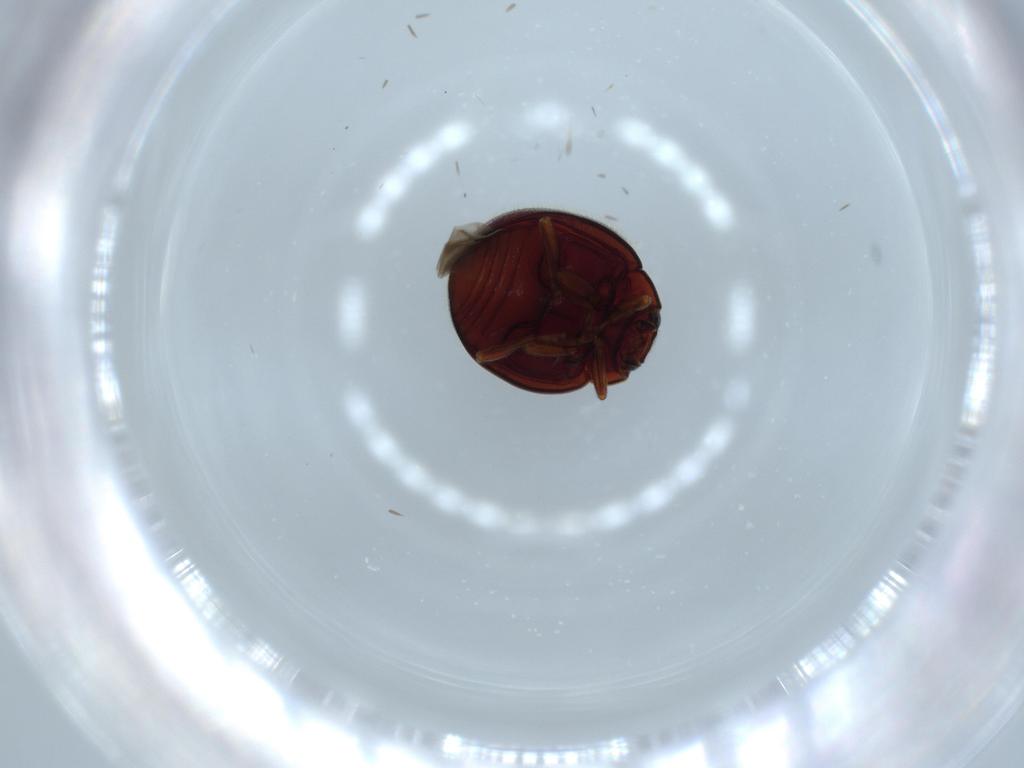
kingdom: Animalia
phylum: Arthropoda
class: Insecta
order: Coleoptera
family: Coccinellidae
